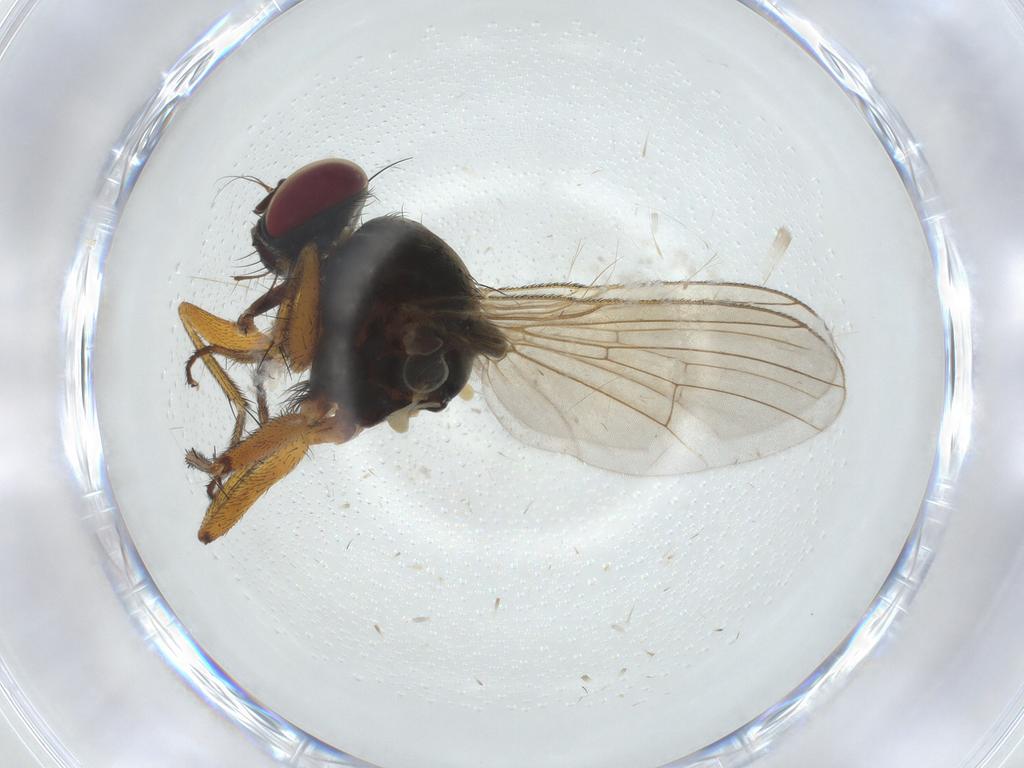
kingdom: Animalia
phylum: Arthropoda
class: Insecta
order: Diptera
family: Muscidae
